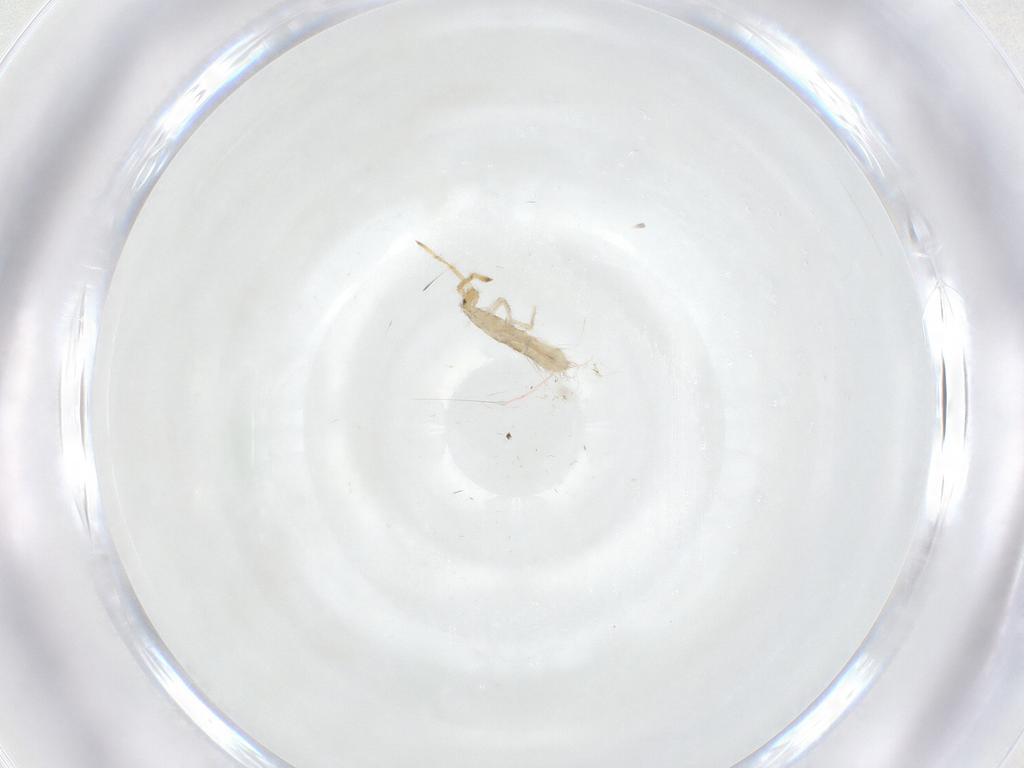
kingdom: Animalia
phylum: Arthropoda
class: Collembola
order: Entomobryomorpha
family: Entomobryidae
